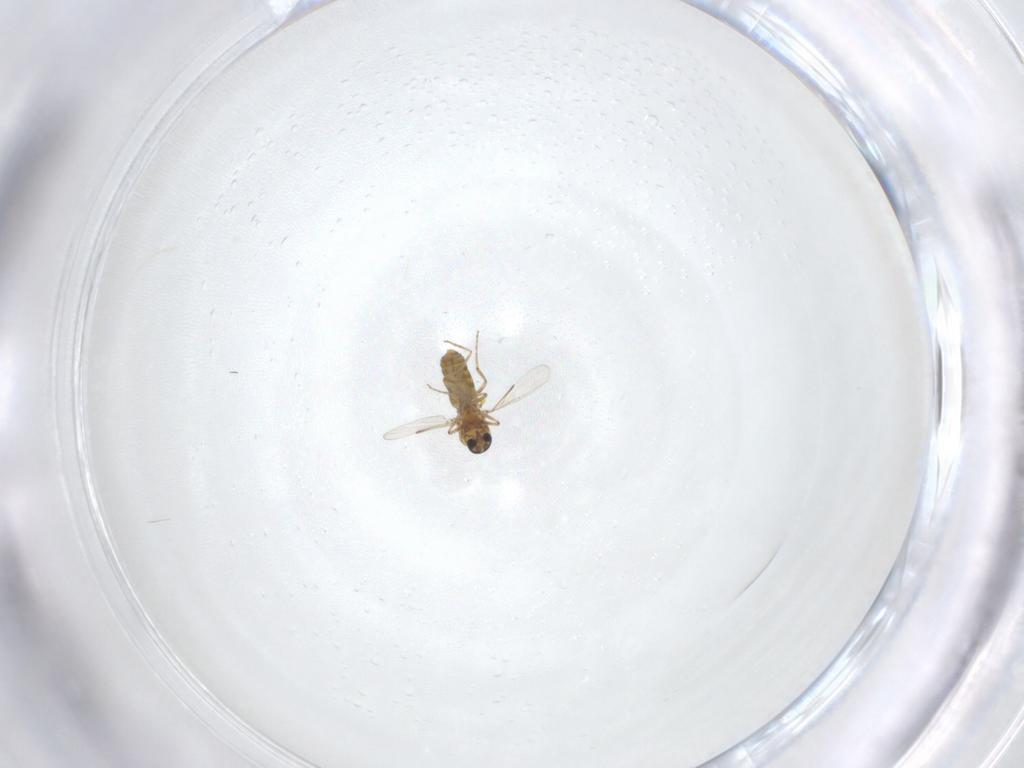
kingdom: Animalia
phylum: Arthropoda
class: Insecta
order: Diptera
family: Ceratopogonidae
